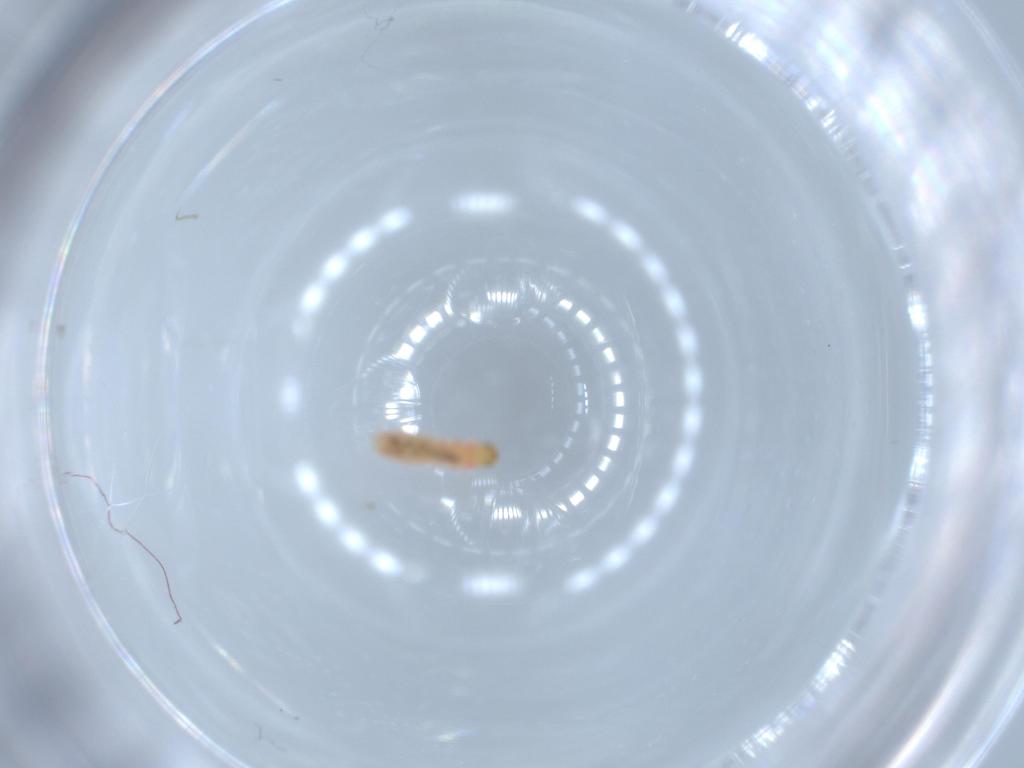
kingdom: Animalia
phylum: Arthropoda
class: Insecta
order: Coleoptera
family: Melyridae
